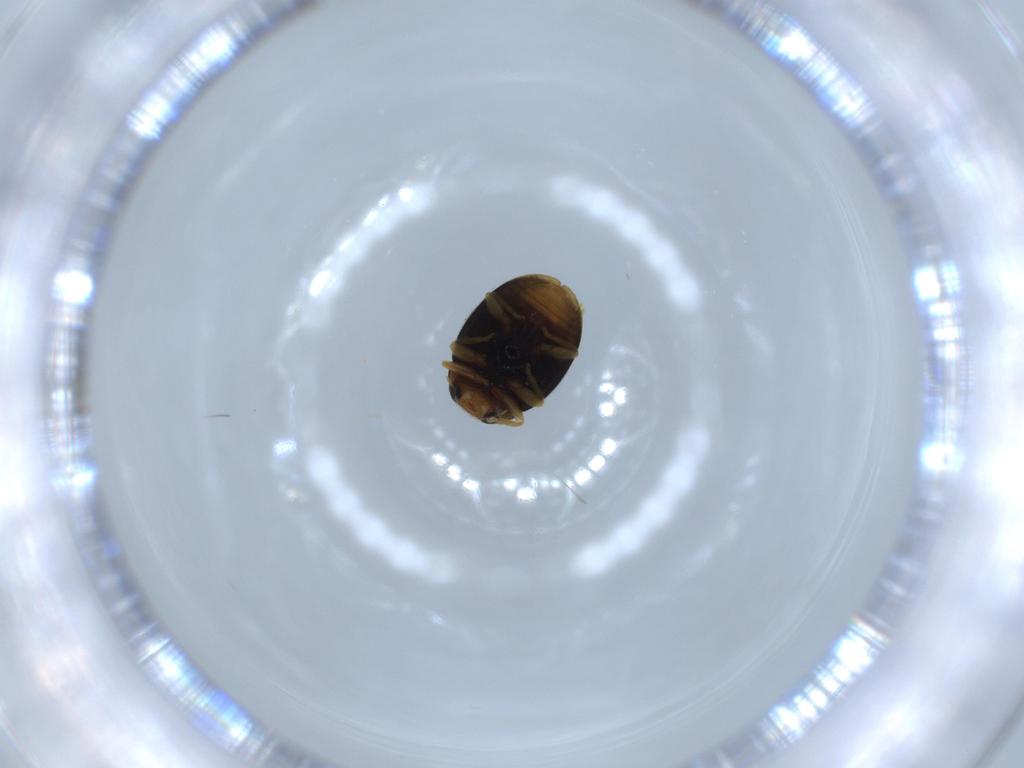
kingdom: Animalia
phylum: Arthropoda
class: Insecta
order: Coleoptera
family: Coccinellidae
